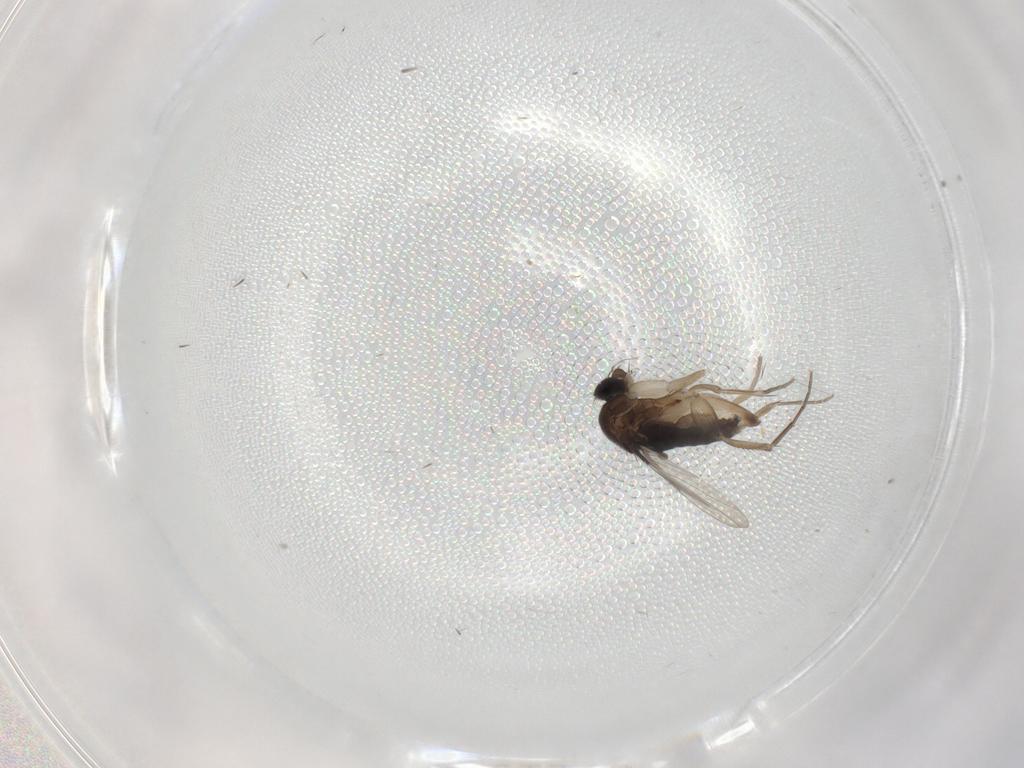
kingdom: Animalia
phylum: Arthropoda
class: Insecta
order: Diptera
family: Phoridae
